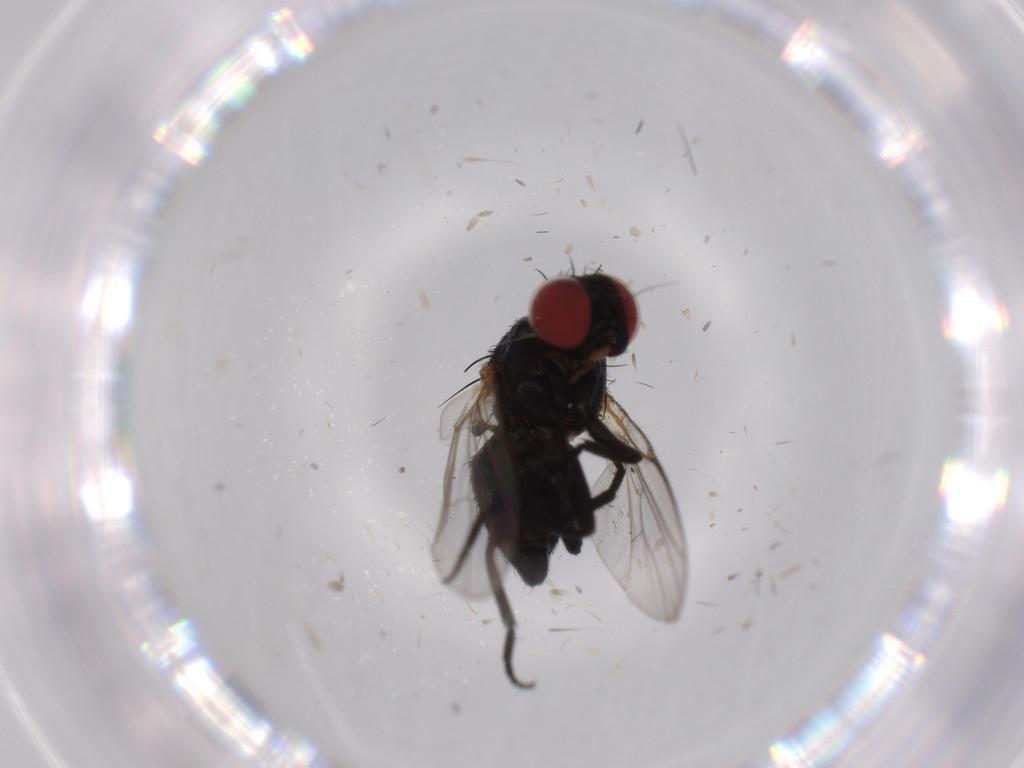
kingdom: Animalia
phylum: Arthropoda
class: Insecta
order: Diptera
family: Agromyzidae
